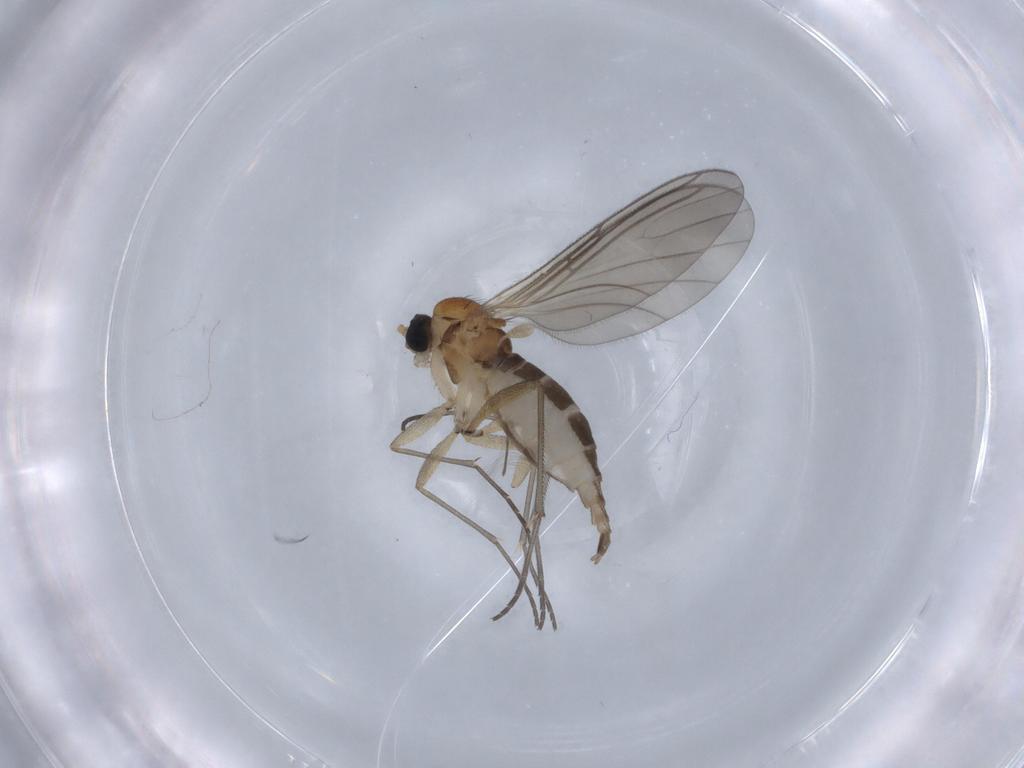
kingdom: Animalia
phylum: Arthropoda
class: Insecta
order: Diptera
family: Sciaridae
